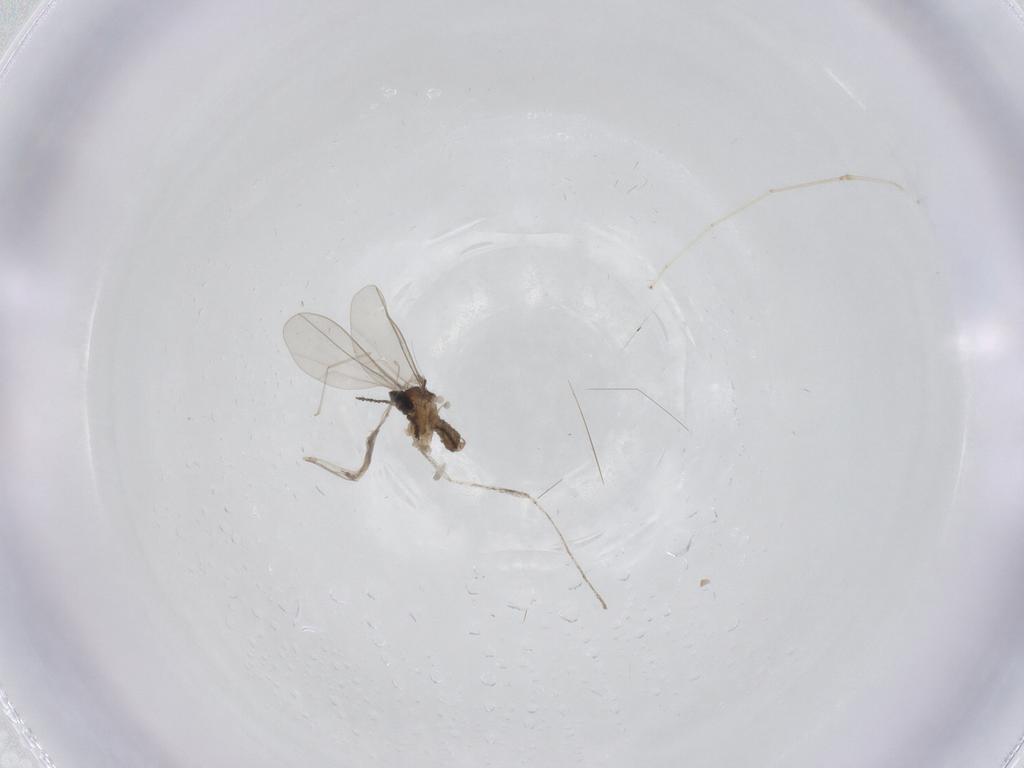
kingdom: Animalia
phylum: Arthropoda
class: Insecta
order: Diptera
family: Cecidomyiidae
